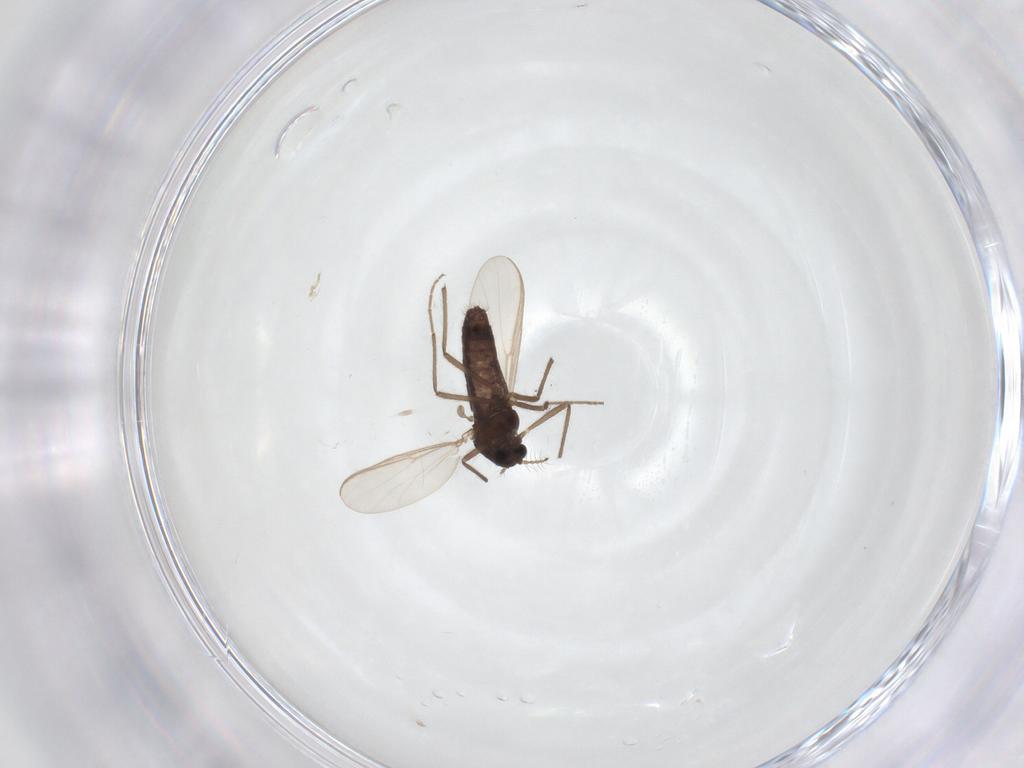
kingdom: Animalia
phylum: Arthropoda
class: Insecta
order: Diptera
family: Chironomidae
